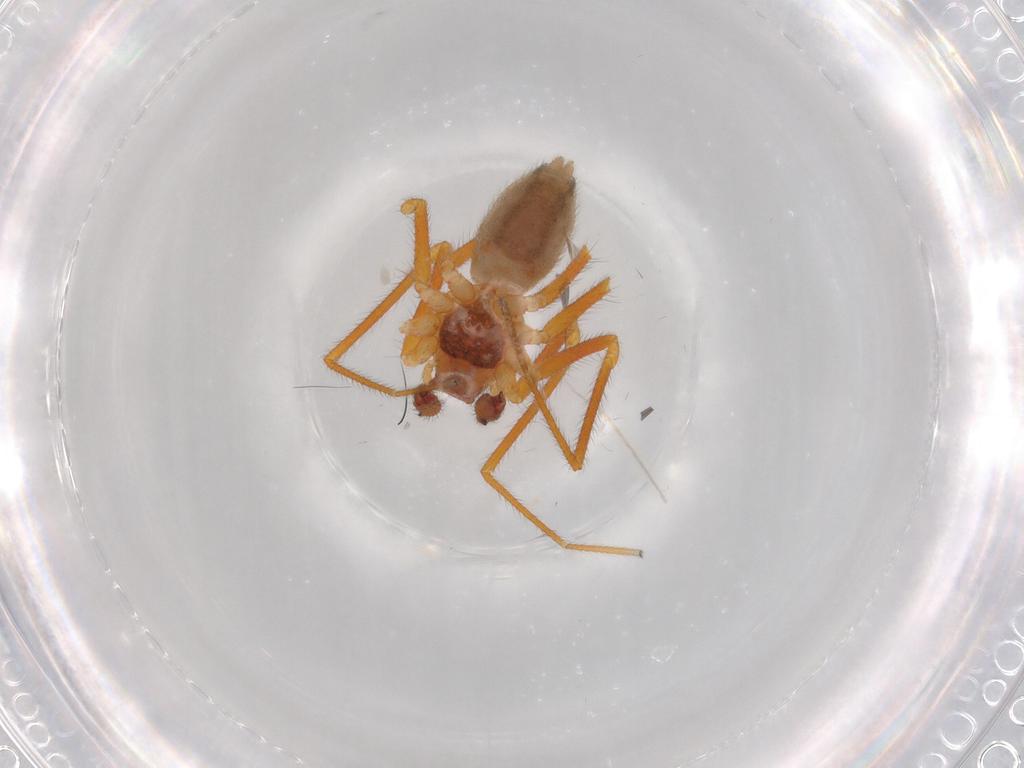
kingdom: Animalia
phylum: Arthropoda
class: Arachnida
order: Araneae
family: Linyphiidae
